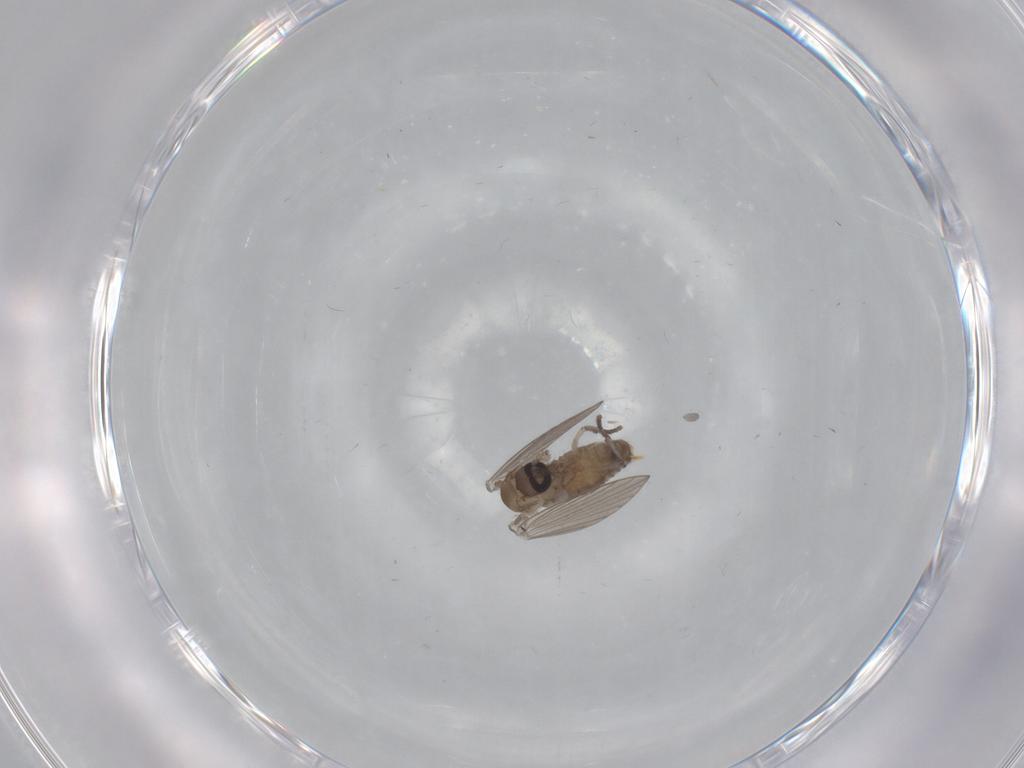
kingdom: Animalia
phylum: Arthropoda
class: Insecta
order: Diptera
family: Psychodidae
